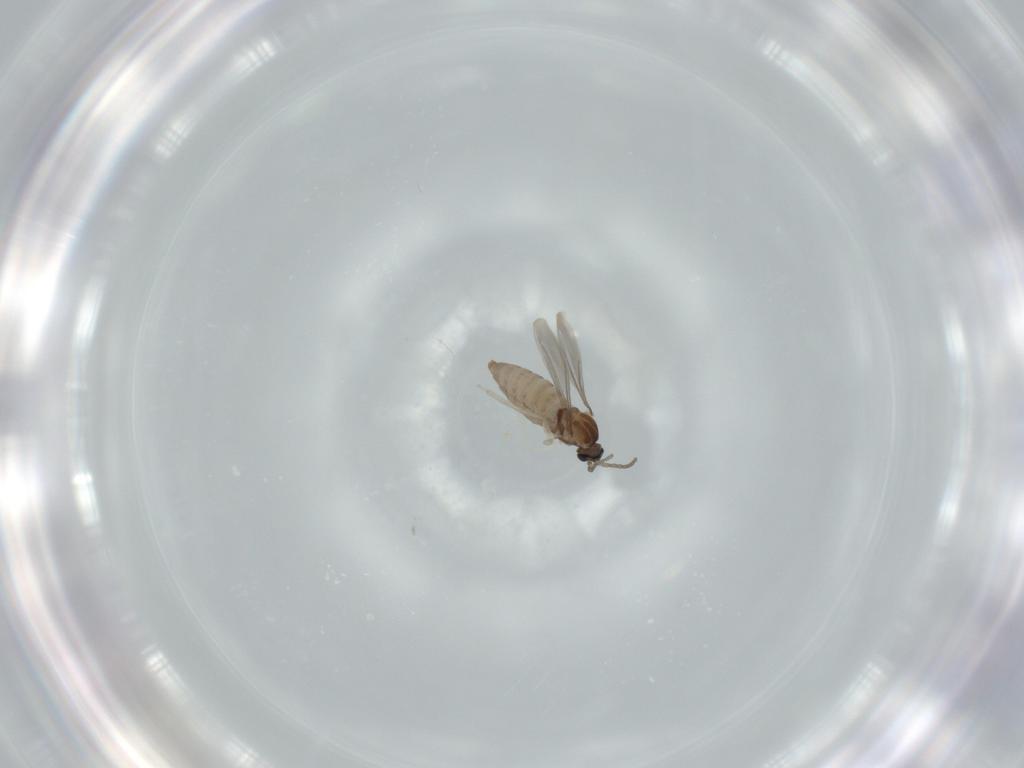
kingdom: Animalia
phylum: Arthropoda
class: Insecta
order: Diptera
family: Cecidomyiidae
